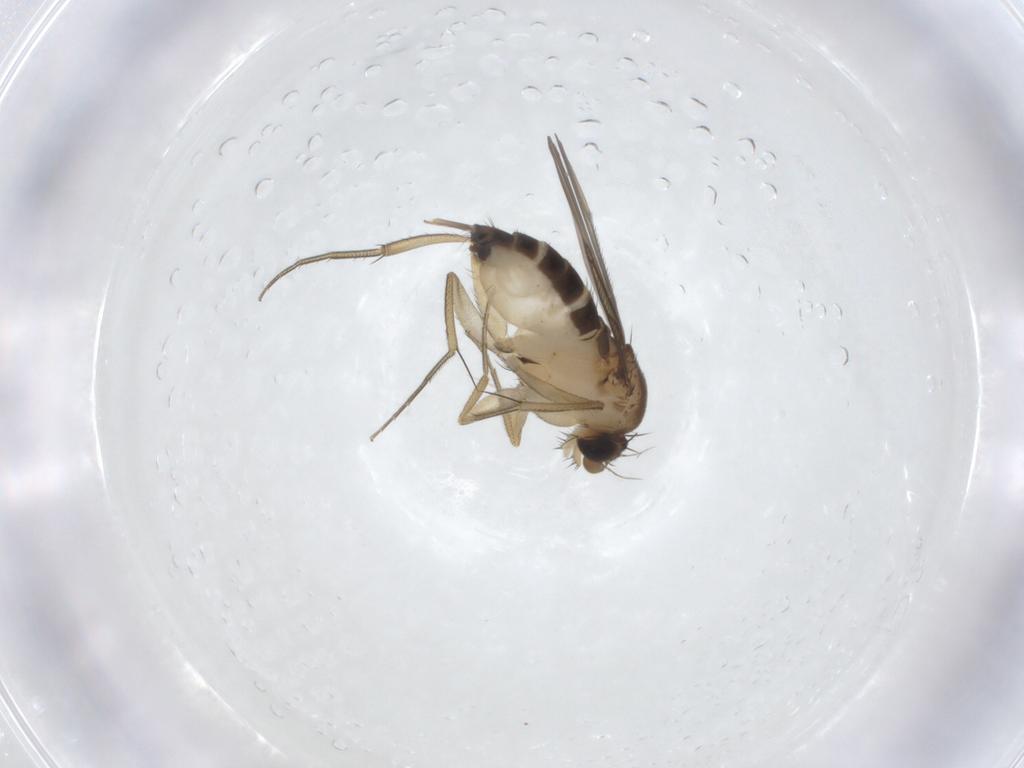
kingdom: Animalia
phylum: Arthropoda
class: Insecta
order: Diptera
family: Phoridae
